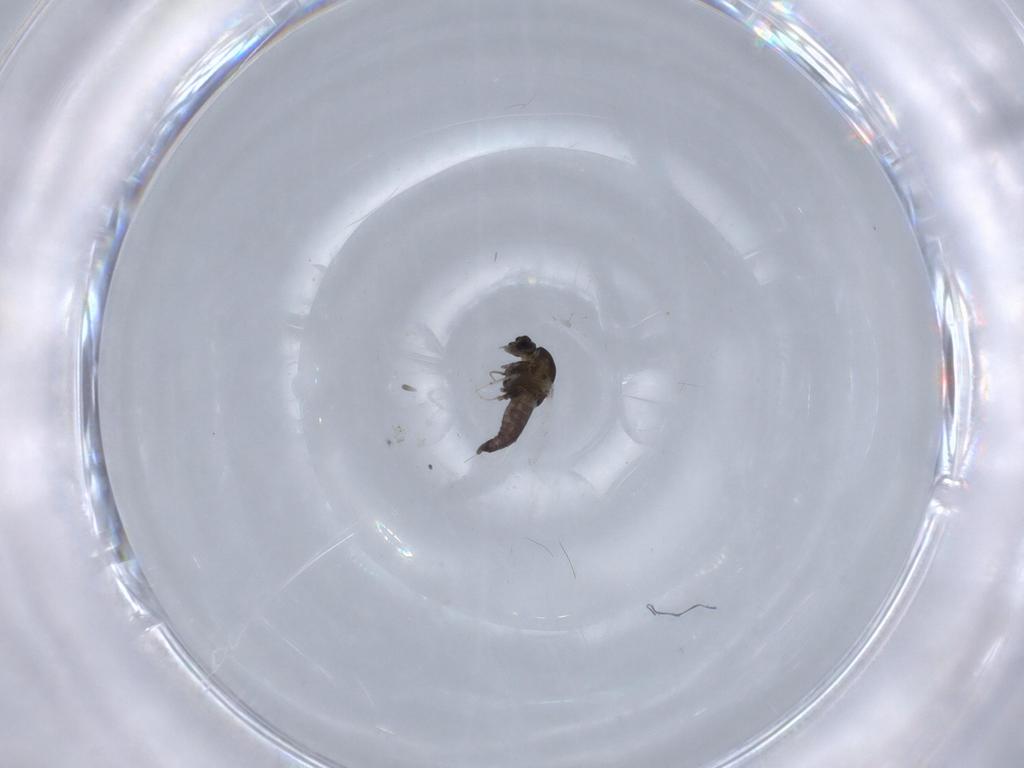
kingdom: Animalia
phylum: Arthropoda
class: Insecta
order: Diptera
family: Chironomidae
